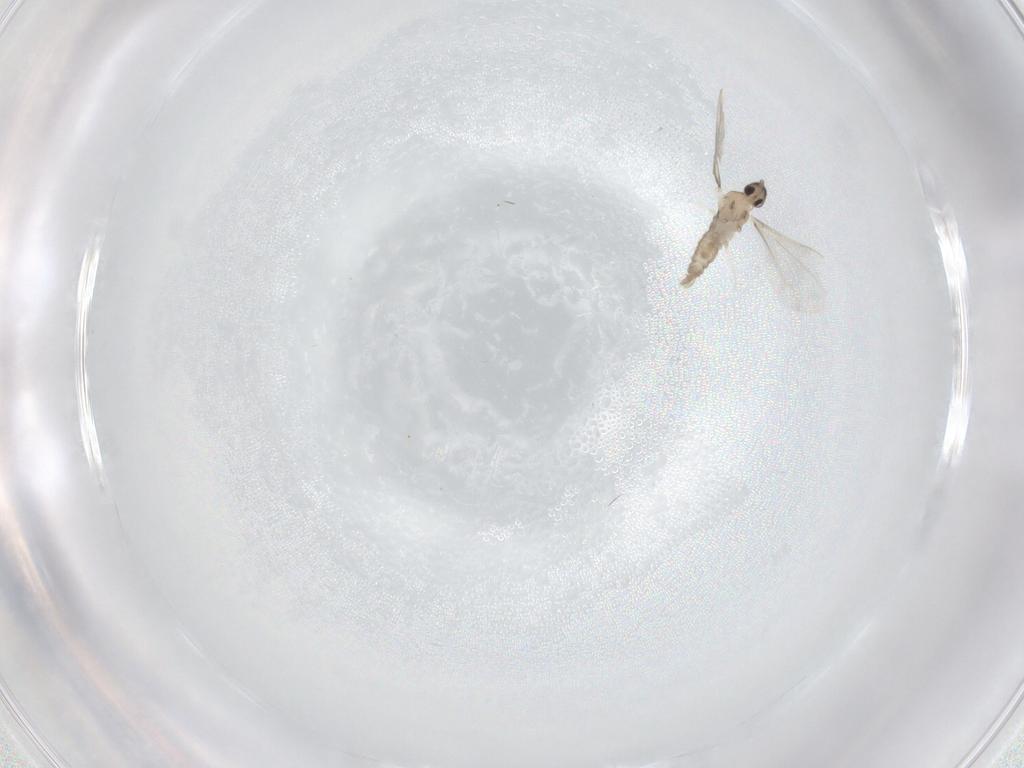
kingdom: Animalia
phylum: Arthropoda
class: Insecta
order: Diptera
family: Cecidomyiidae
